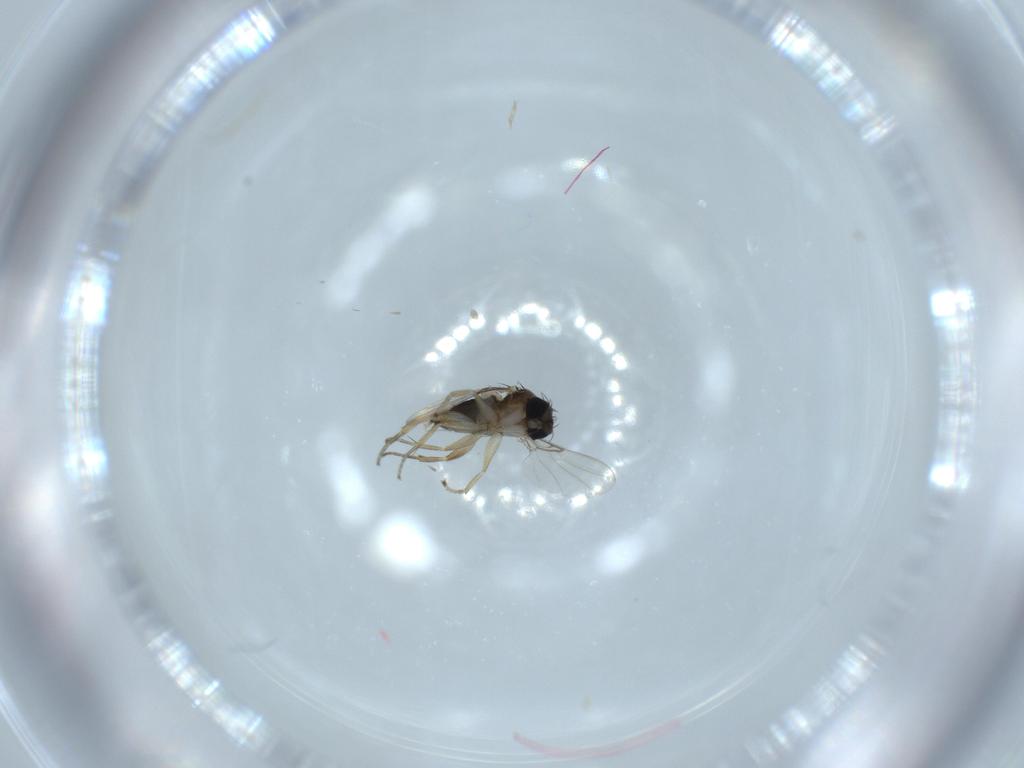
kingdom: Animalia
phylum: Arthropoda
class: Insecta
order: Diptera
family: Phoridae
